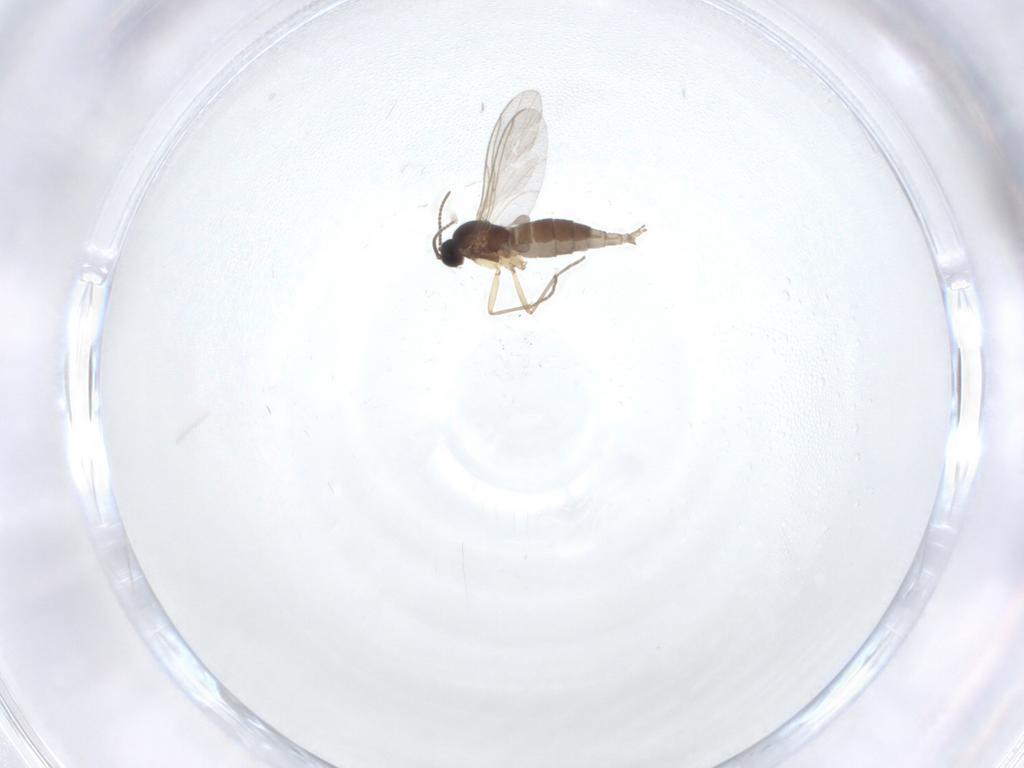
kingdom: Animalia
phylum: Arthropoda
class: Insecta
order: Diptera
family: Sciaridae
